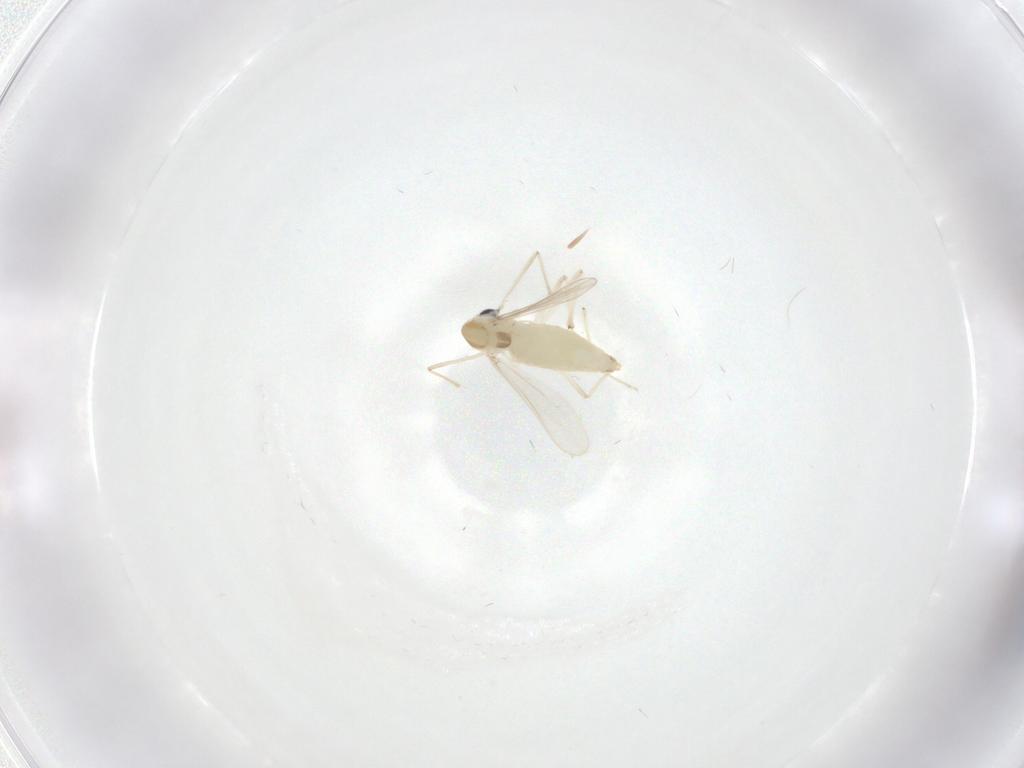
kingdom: Animalia
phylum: Arthropoda
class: Insecta
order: Diptera
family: Chironomidae
